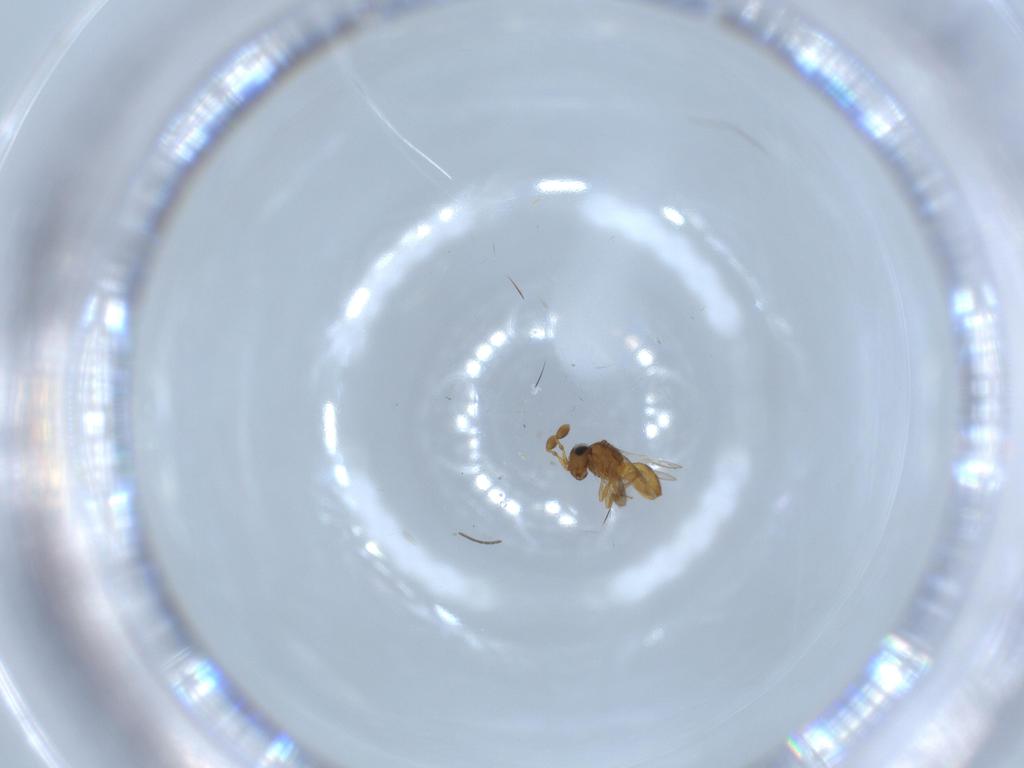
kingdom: Animalia
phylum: Arthropoda
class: Insecta
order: Hymenoptera
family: Scelionidae
